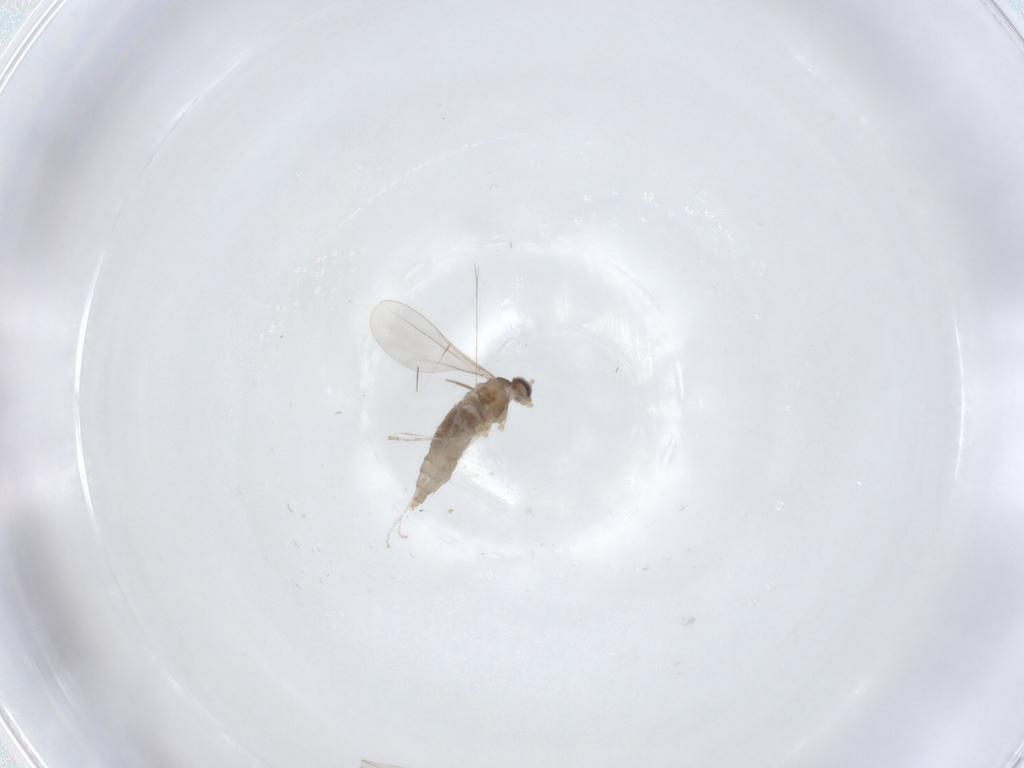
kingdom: Animalia
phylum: Arthropoda
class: Insecta
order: Diptera
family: Cecidomyiidae
